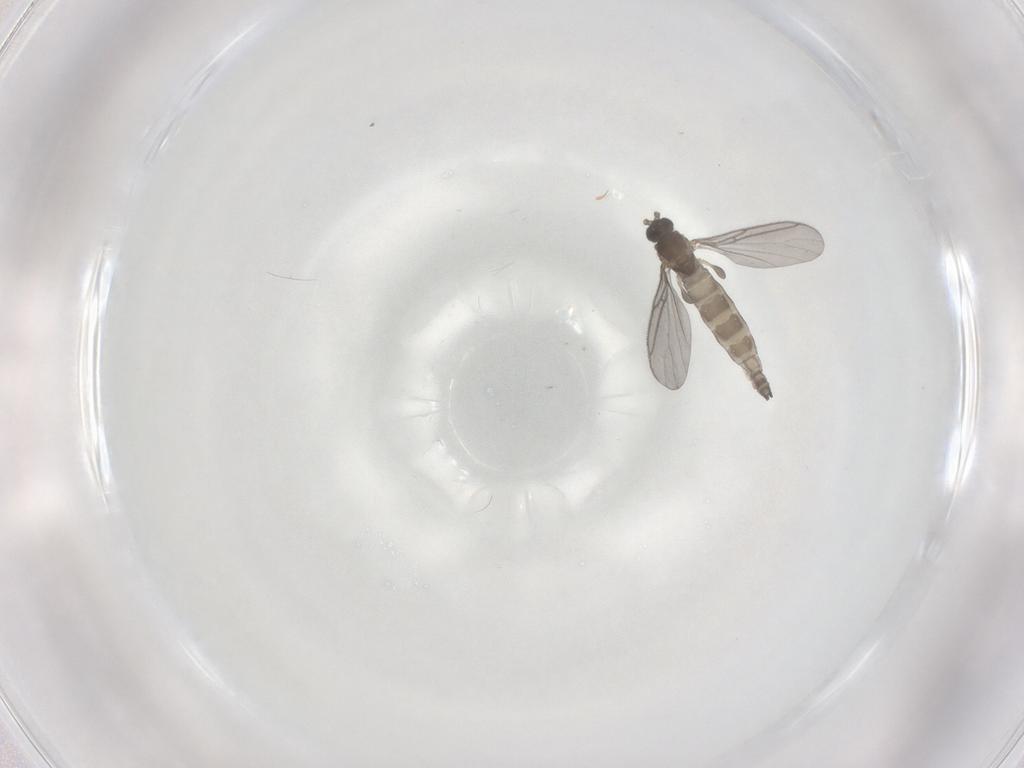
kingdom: Animalia
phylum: Arthropoda
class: Insecta
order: Diptera
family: Sciaridae
